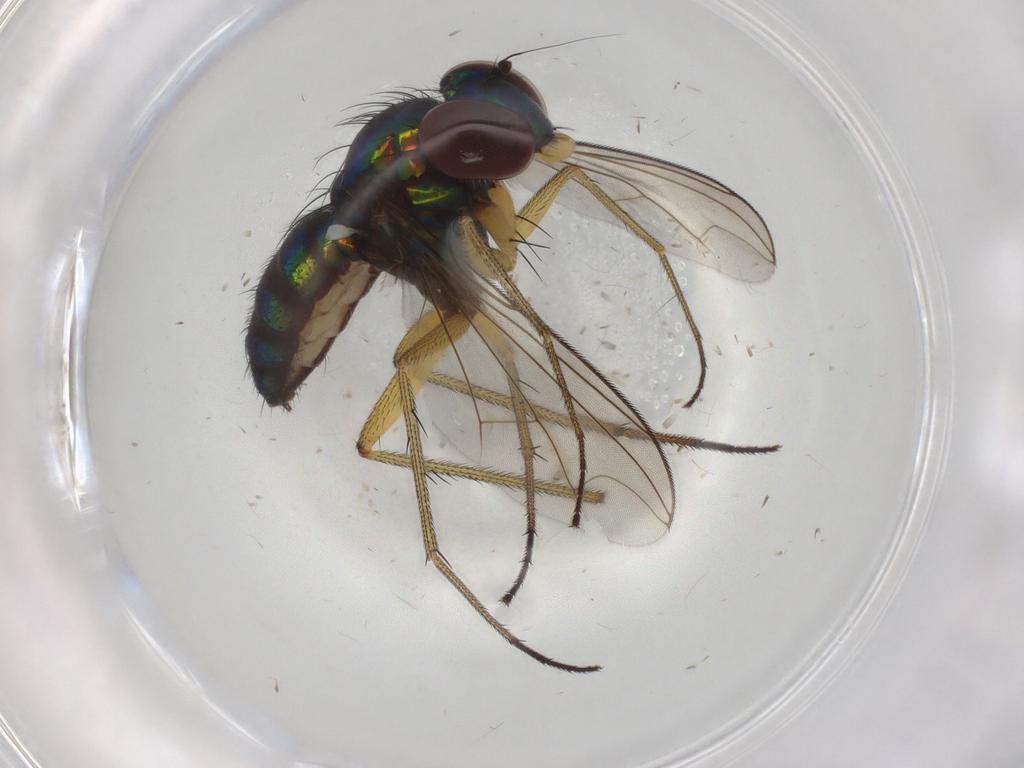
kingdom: Animalia
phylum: Arthropoda
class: Insecta
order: Diptera
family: Dolichopodidae
